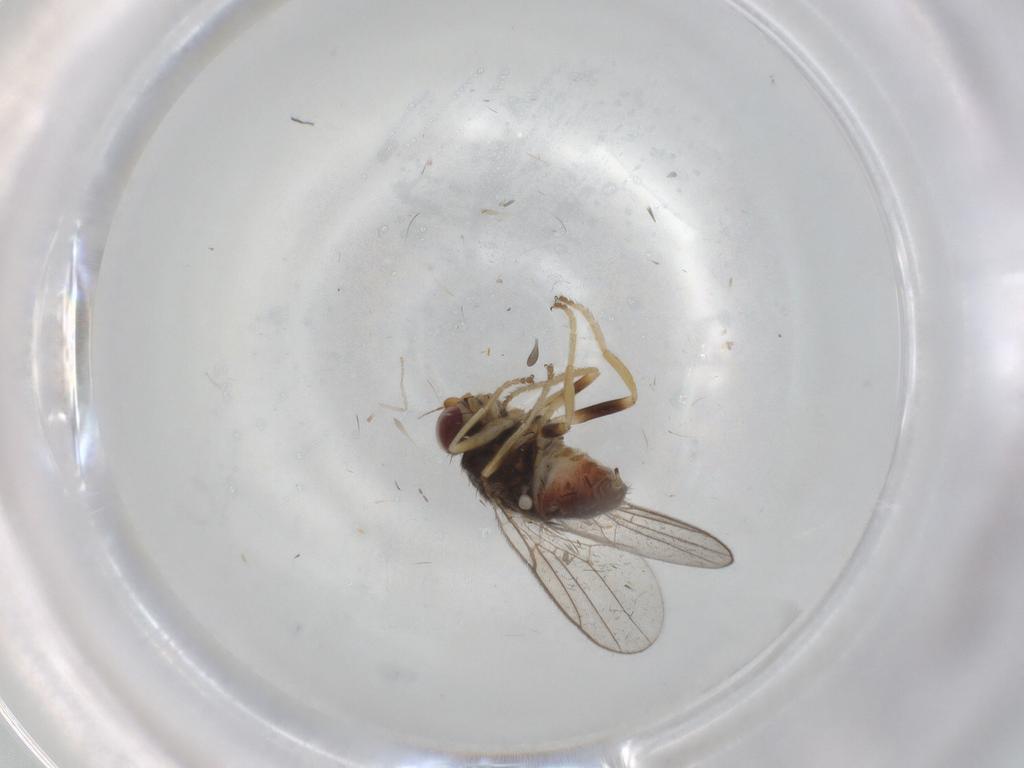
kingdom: Animalia
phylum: Arthropoda
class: Insecta
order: Diptera
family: Chloropidae
